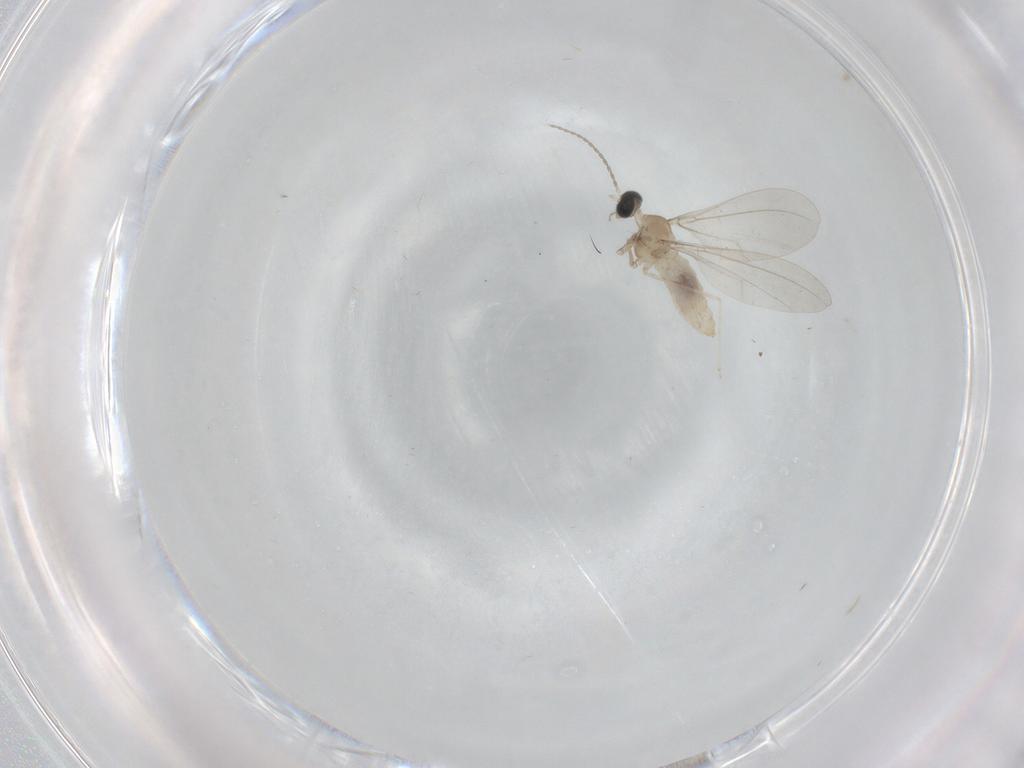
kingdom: Animalia
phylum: Arthropoda
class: Insecta
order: Diptera
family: Cecidomyiidae
